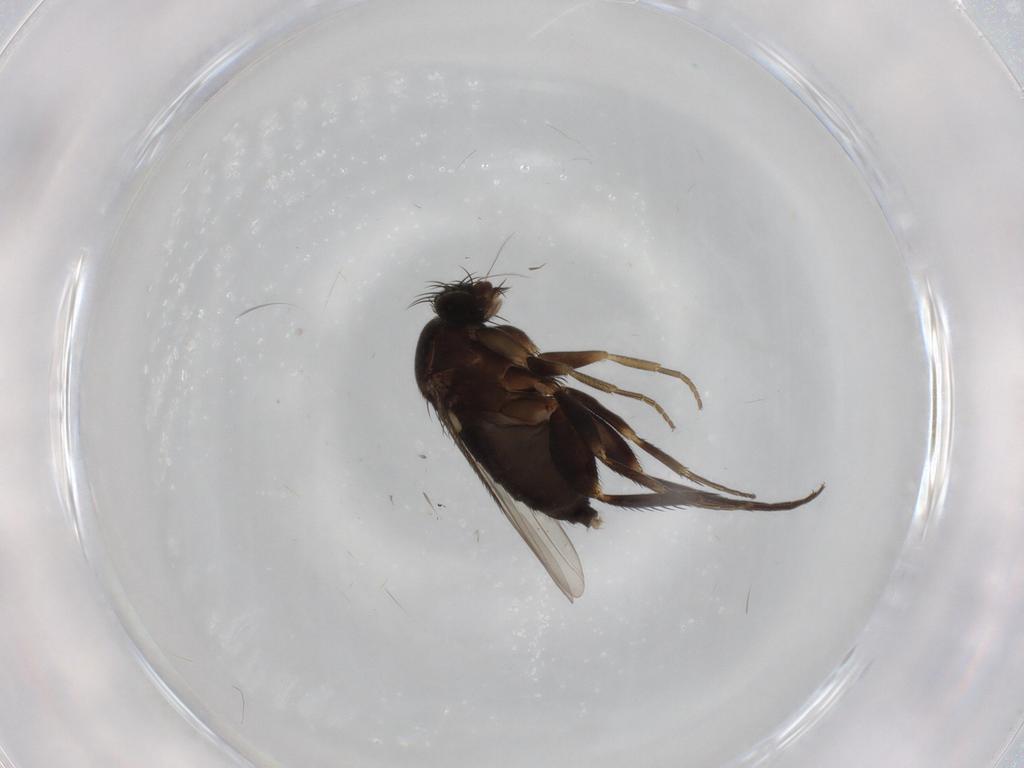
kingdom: Animalia
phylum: Arthropoda
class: Insecta
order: Diptera
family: Phoridae
